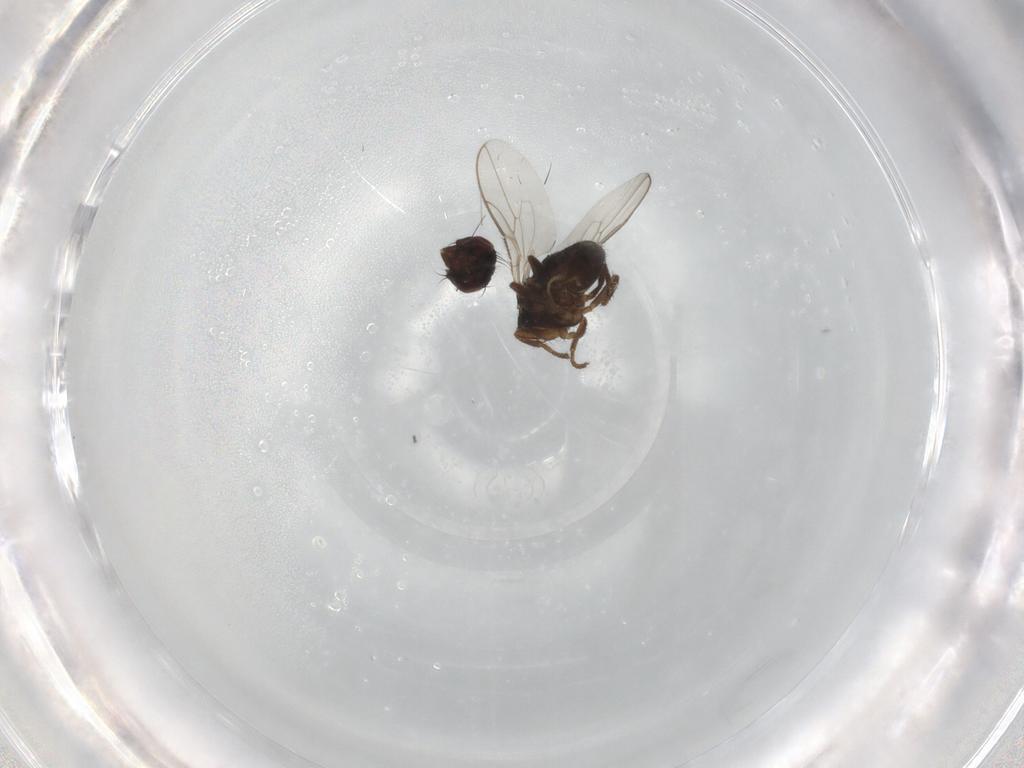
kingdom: Animalia
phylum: Arthropoda
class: Insecta
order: Diptera
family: Sphaeroceridae
